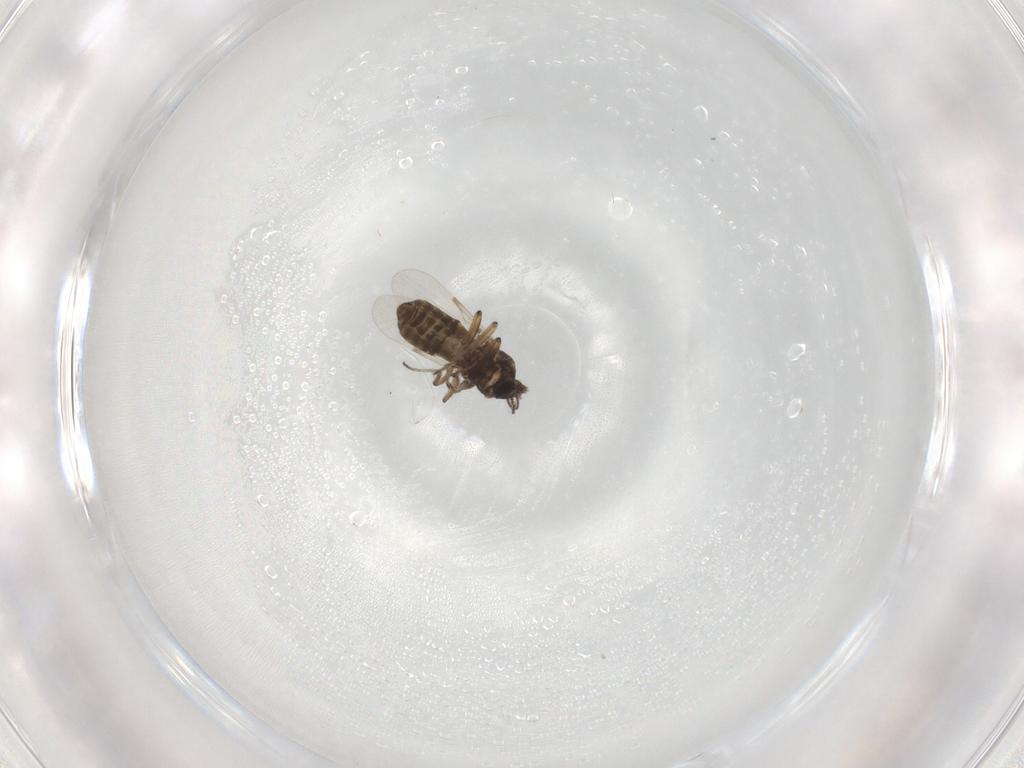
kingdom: Animalia
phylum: Arthropoda
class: Insecta
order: Diptera
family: Ceratopogonidae
